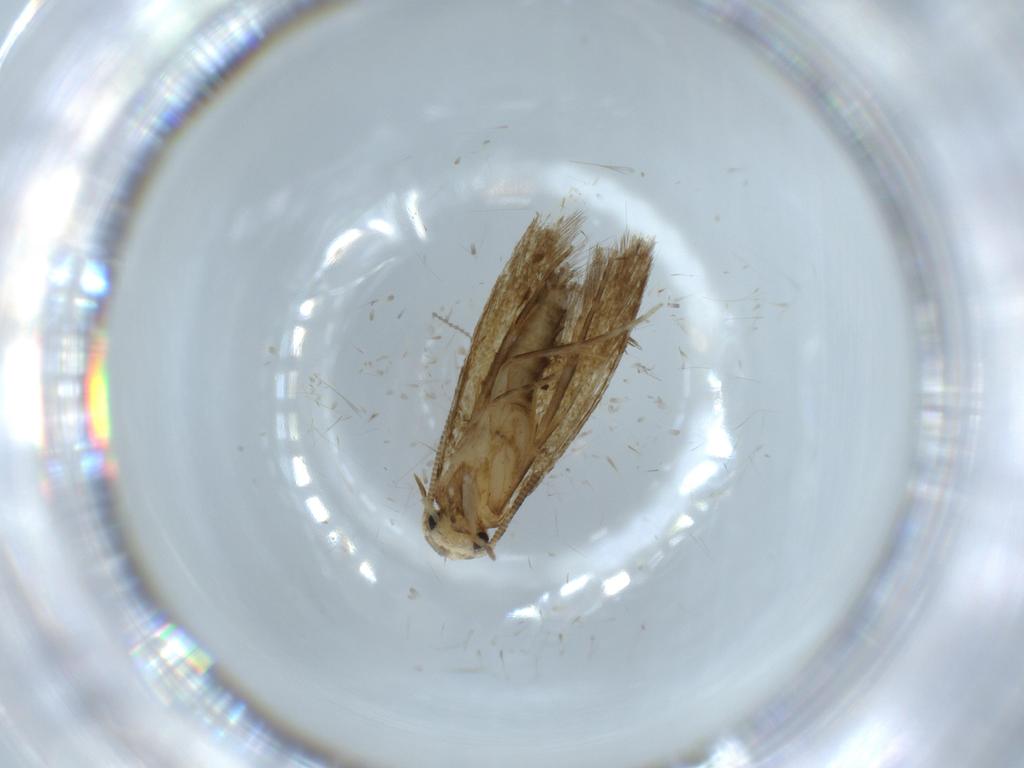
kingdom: Animalia
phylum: Arthropoda
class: Insecta
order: Lepidoptera
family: Tineidae
